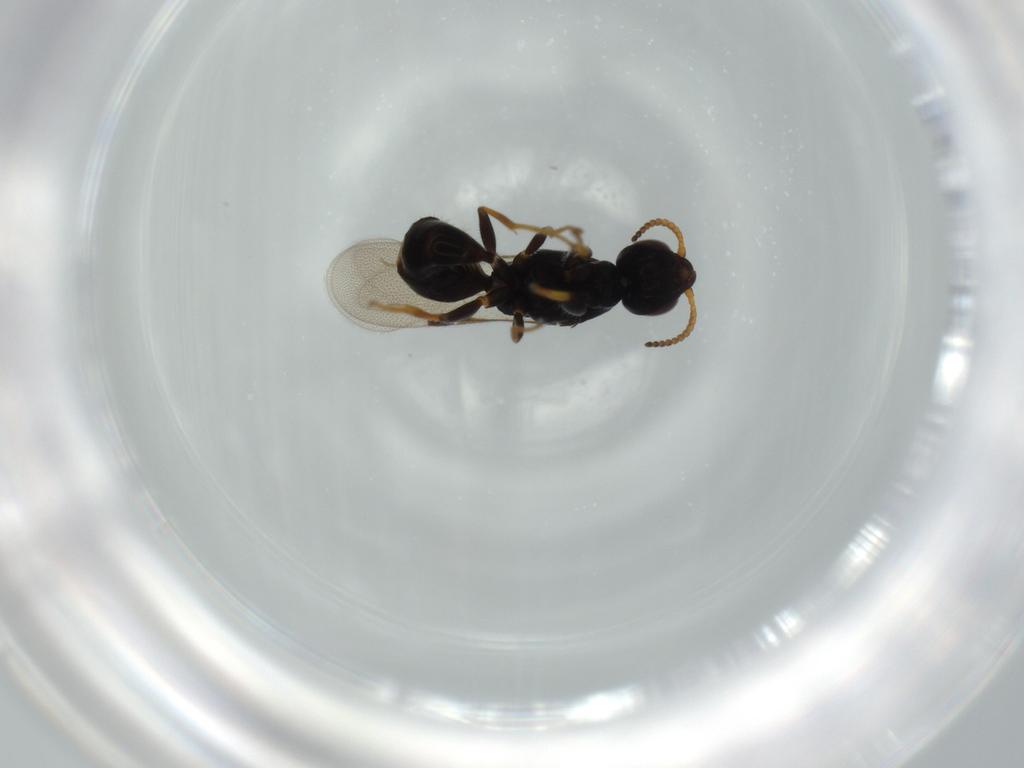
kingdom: Animalia
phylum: Arthropoda
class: Insecta
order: Hymenoptera
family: Bethylidae
